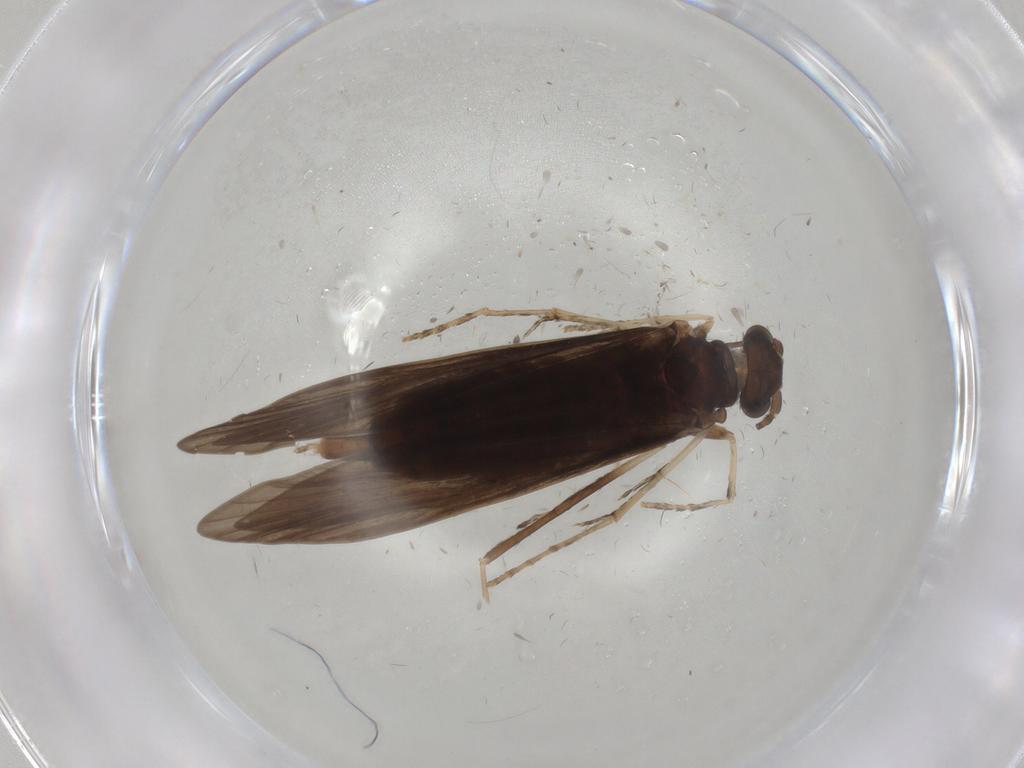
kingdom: Animalia
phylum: Arthropoda
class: Insecta
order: Trichoptera
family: Xiphocentronidae
